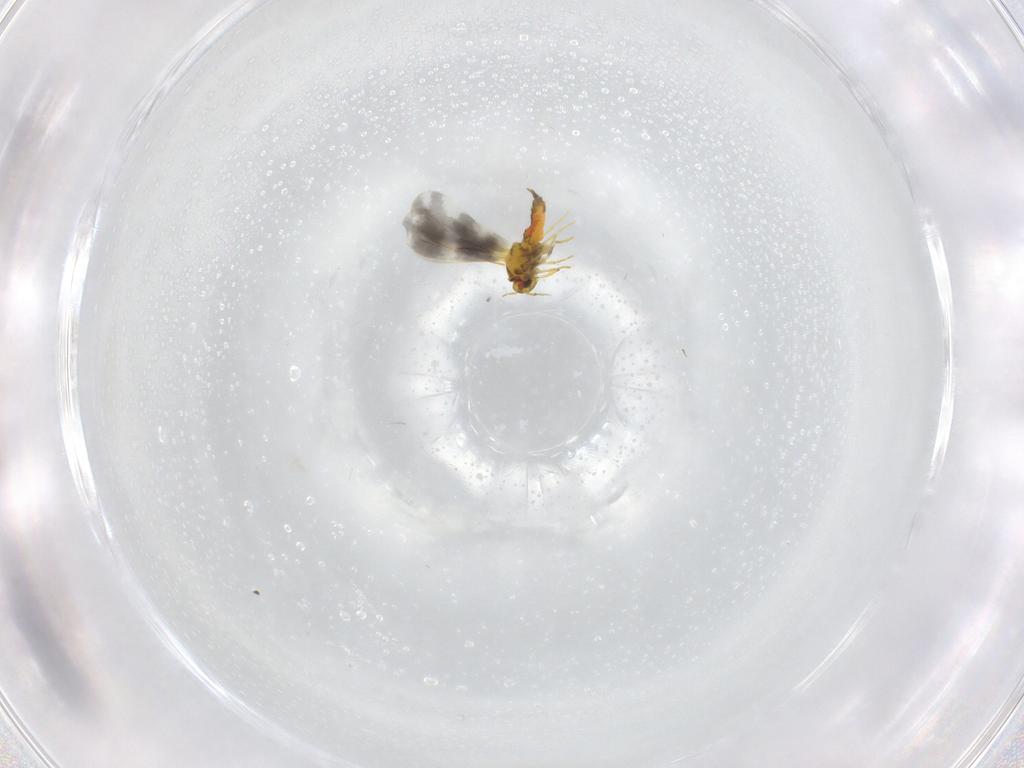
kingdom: Animalia
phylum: Arthropoda
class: Insecta
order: Hemiptera
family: Aleyrodidae
